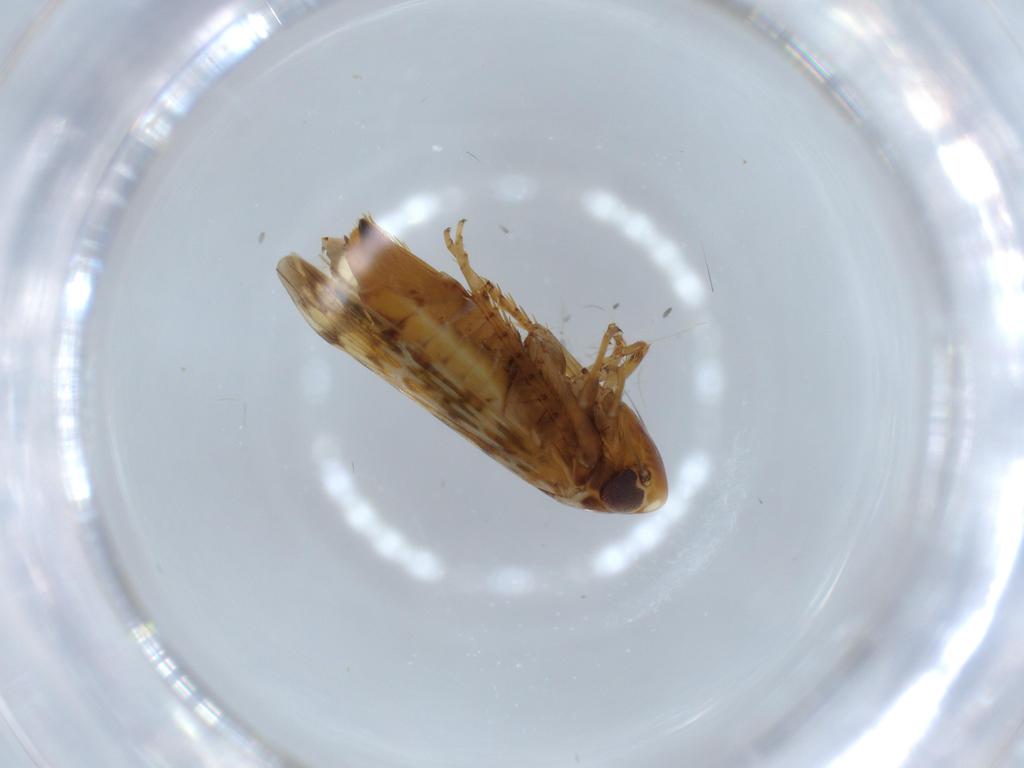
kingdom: Animalia
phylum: Arthropoda
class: Insecta
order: Hemiptera
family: Cicadellidae
